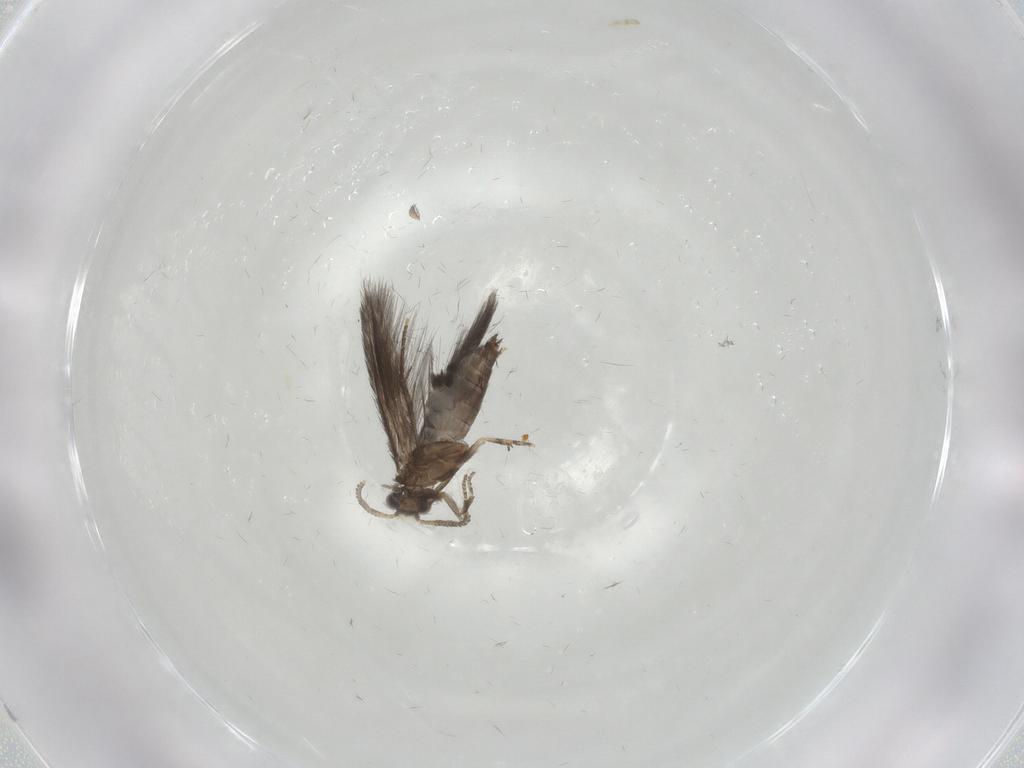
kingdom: Animalia
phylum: Arthropoda
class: Insecta
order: Trichoptera
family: Hydroptilidae
